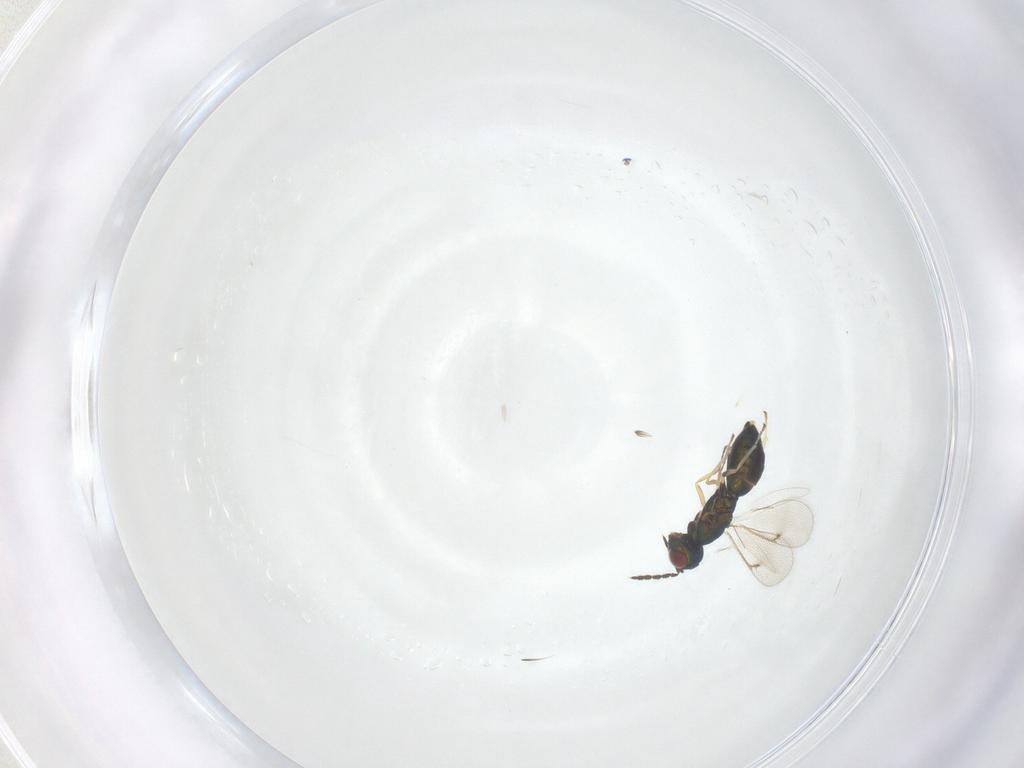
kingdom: Animalia
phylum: Arthropoda
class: Insecta
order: Hymenoptera
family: Eulophidae
